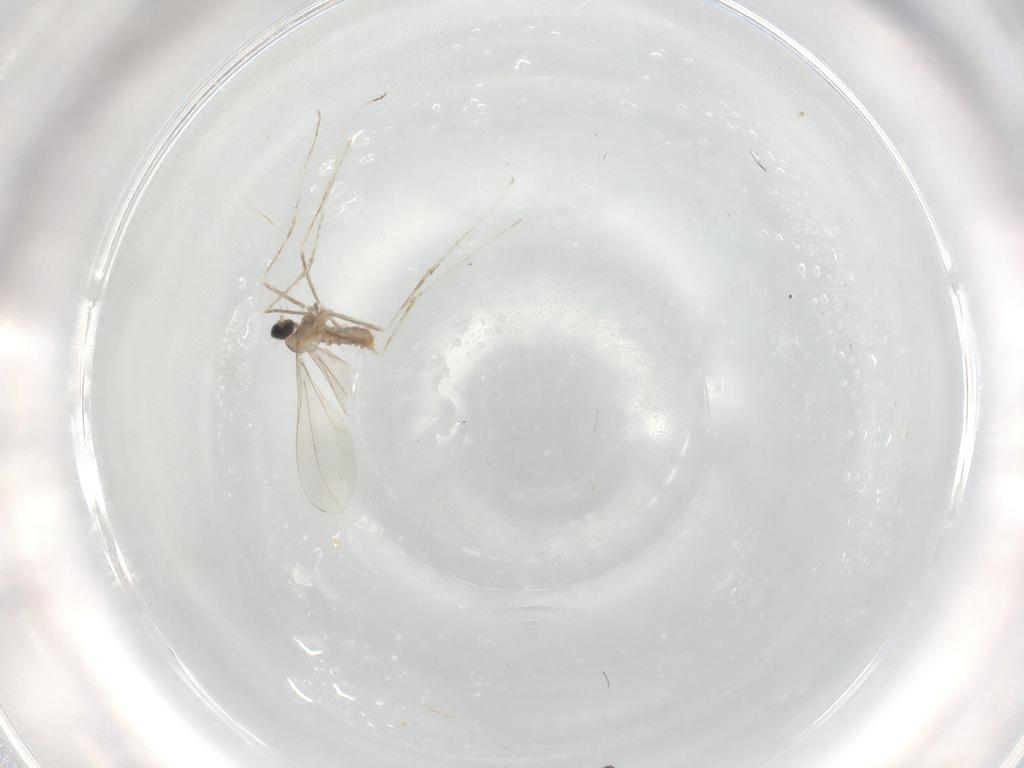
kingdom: Animalia
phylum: Arthropoda
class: Insecta
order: Diptera
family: Cecidomyiidae
